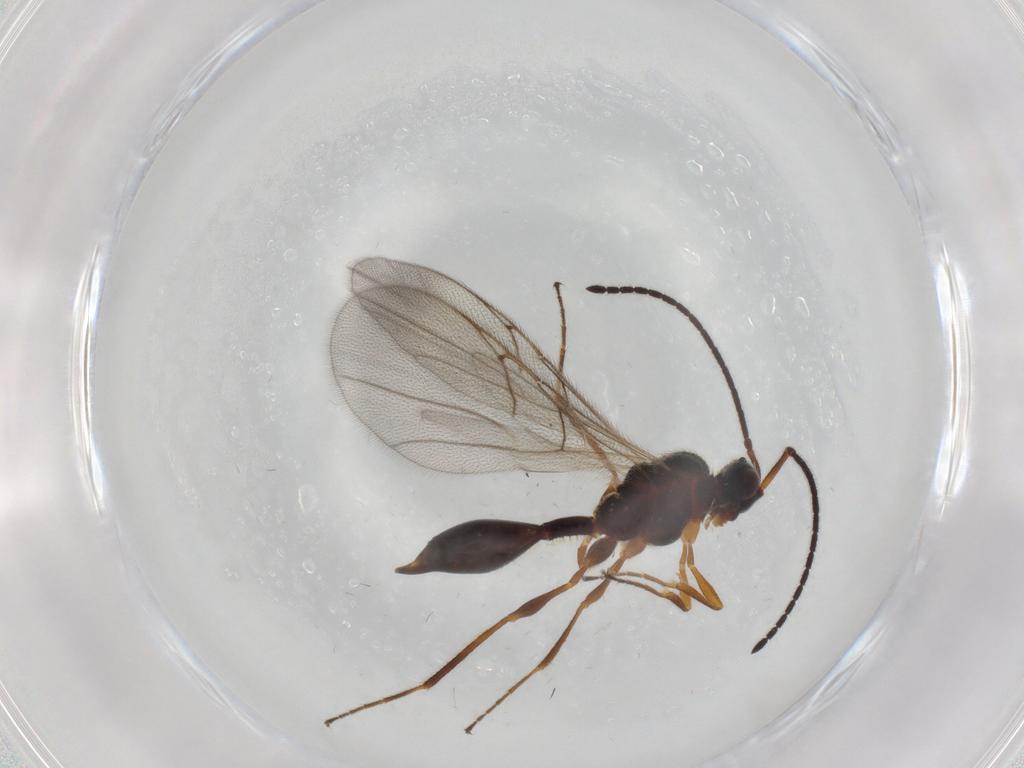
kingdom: Animalia
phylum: Arthropoda
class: Insecta
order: Hymenoptera
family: Diapriidae
